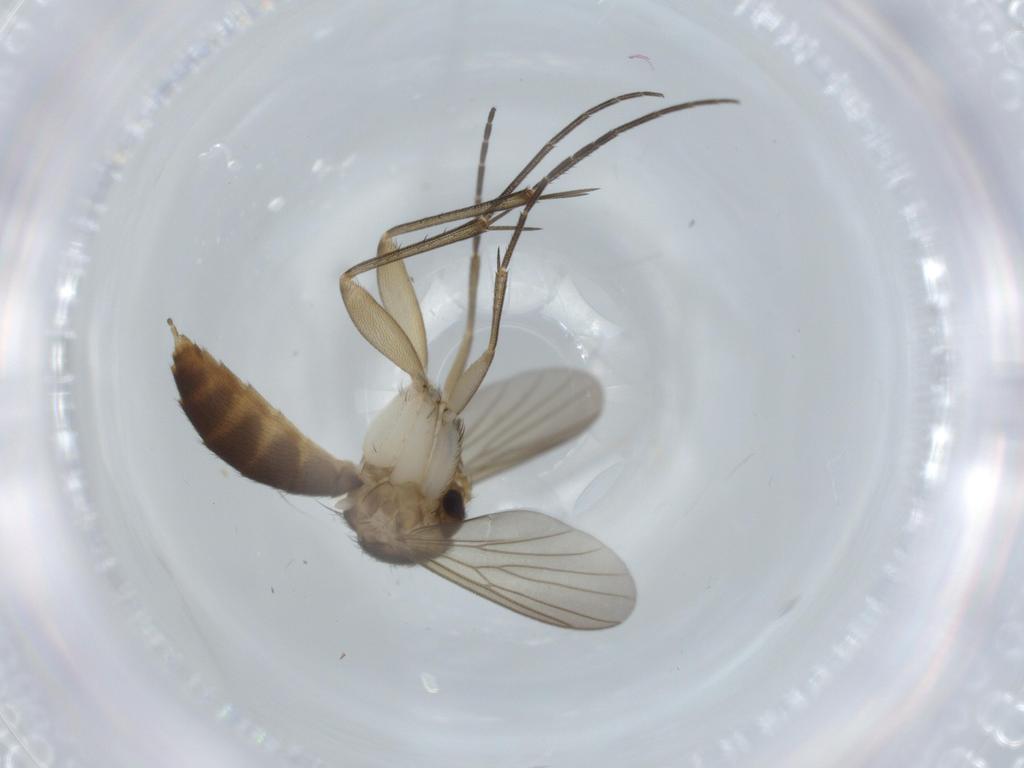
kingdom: Animalia
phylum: Arthropoda
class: Insecta
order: Diptera
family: Mycetophilidae
